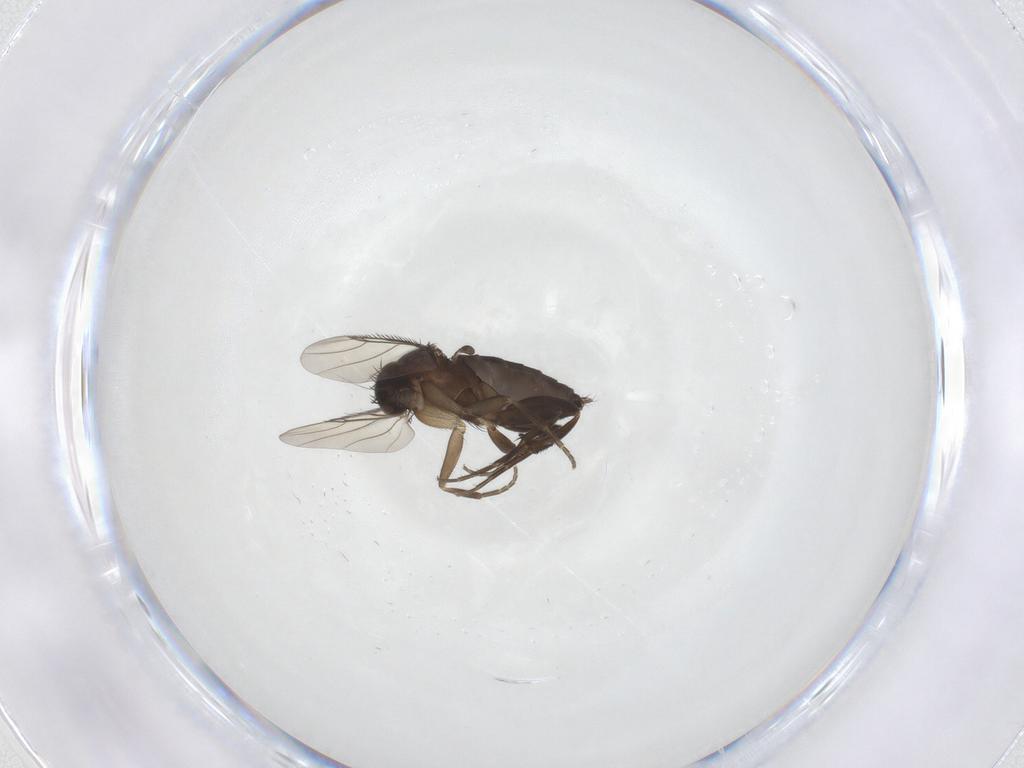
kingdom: Animalia
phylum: Arthropoda
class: Insecta
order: Diptera
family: Phoridae
